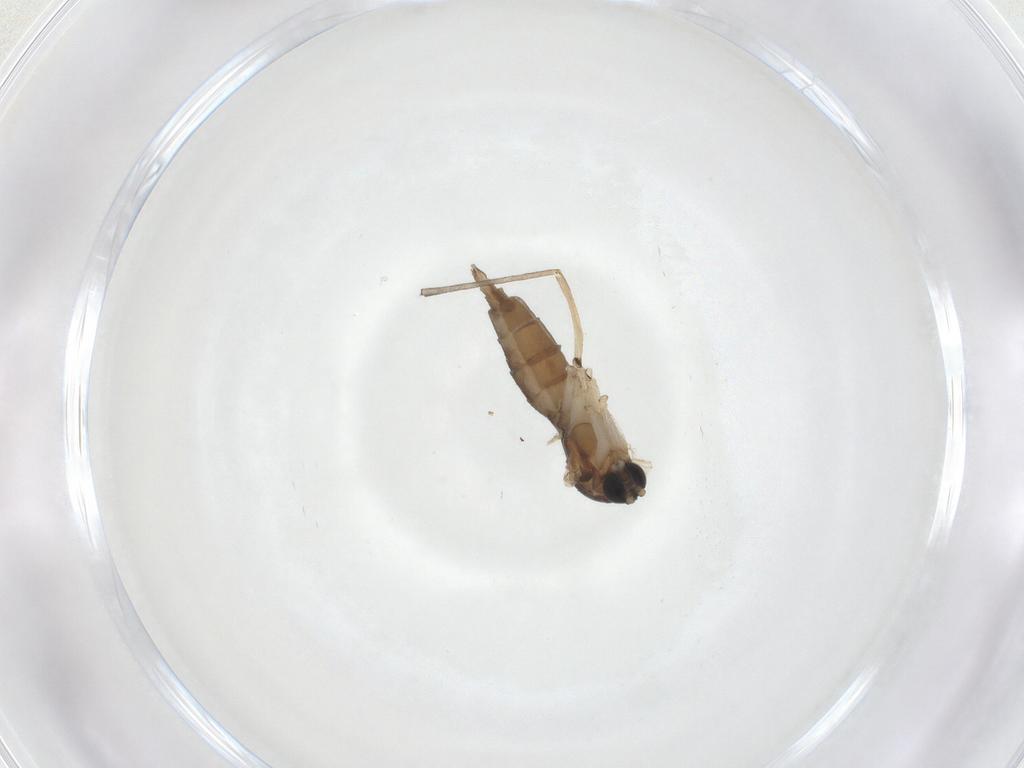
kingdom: Animalia
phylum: Arthropoda
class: Insecta
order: Diptera
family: Sciaridae
